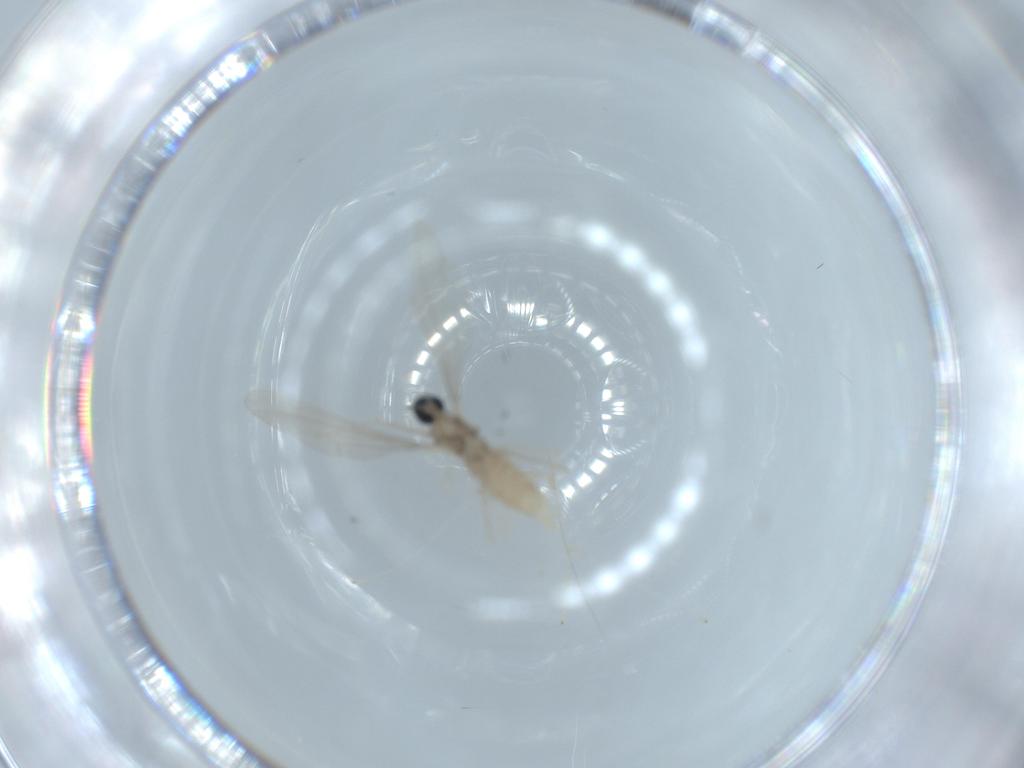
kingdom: Animalia
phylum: Arthropoda
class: Insecta
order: Diptera
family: Cecidomyiidae
